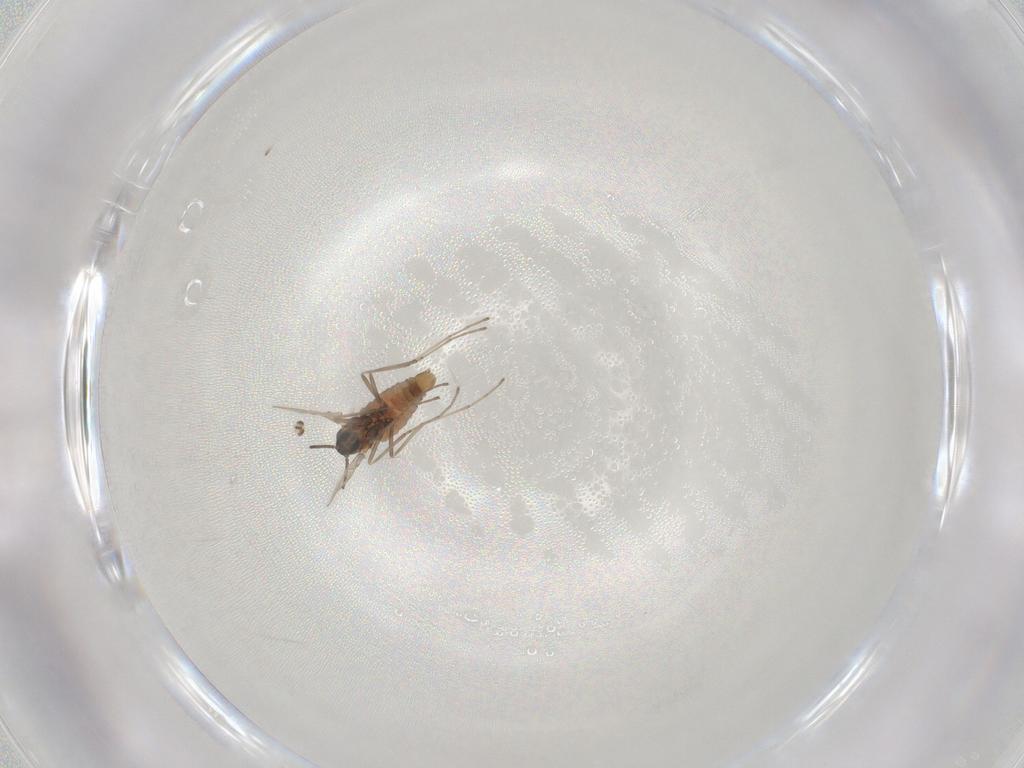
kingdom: Animalia
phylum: Arthropoda
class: Insecta
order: Diptera
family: Cecidomyiidae
